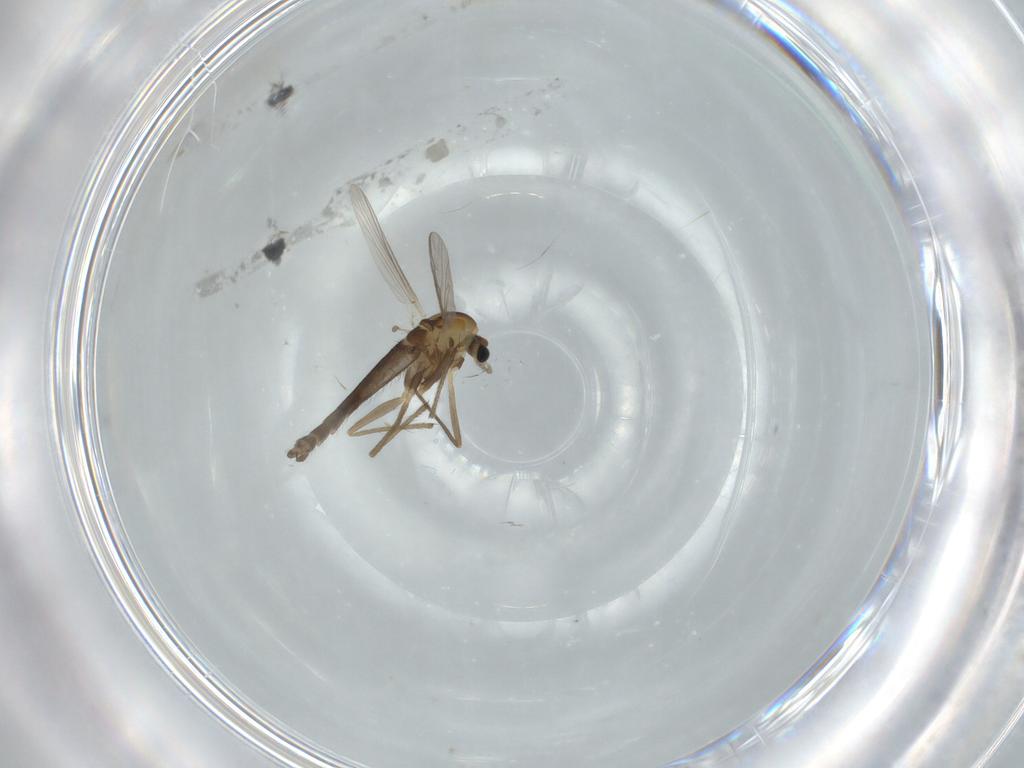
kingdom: Animalia
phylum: Arthropoda
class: Insecta
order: Diptera
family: Chironomidae
